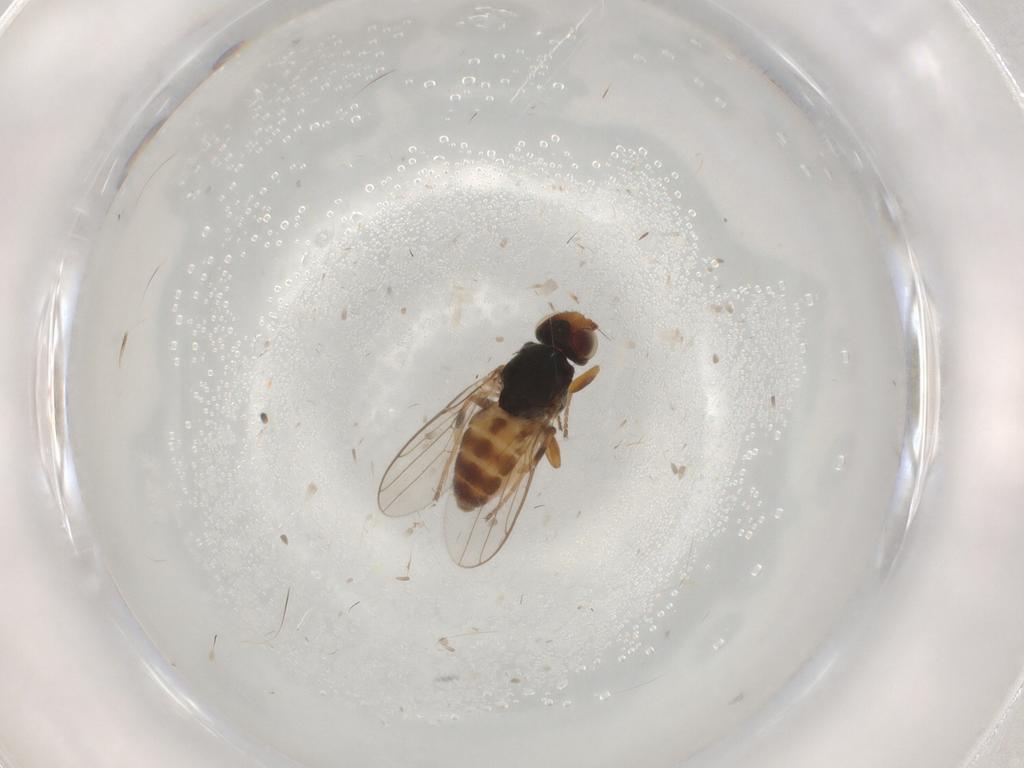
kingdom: Animalia
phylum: Arthropoda
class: Insecta
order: Diptera
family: Chloropidae
